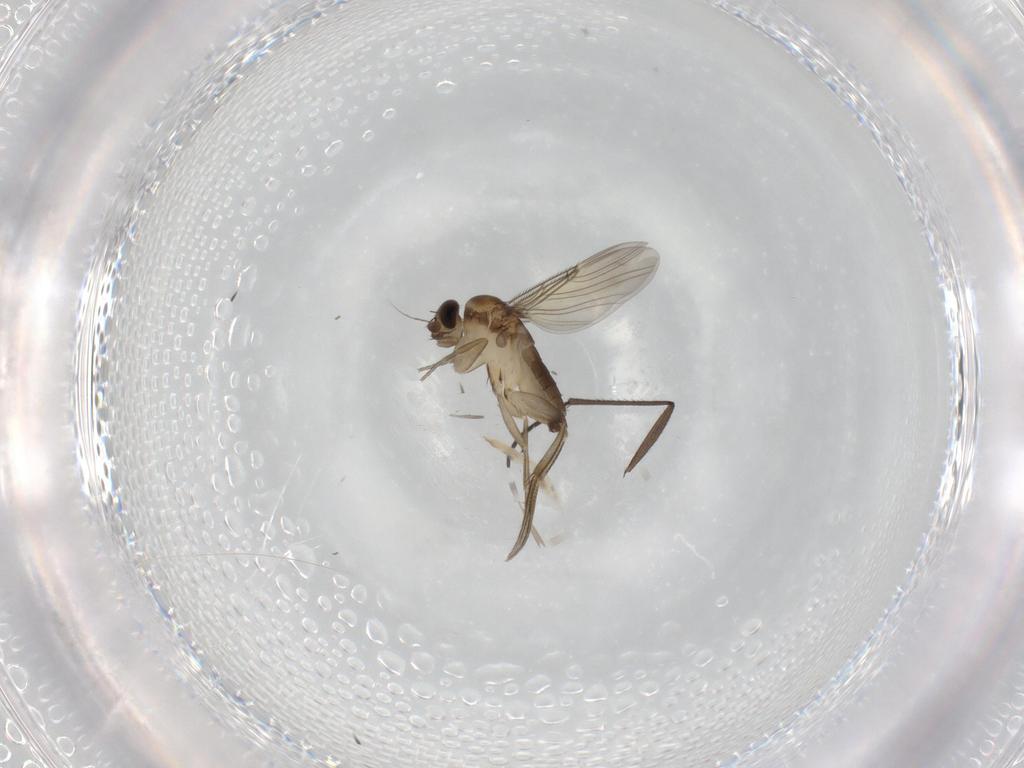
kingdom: Animalia
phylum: Arthropoda
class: Insecta
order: Diptera
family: Phoridae
